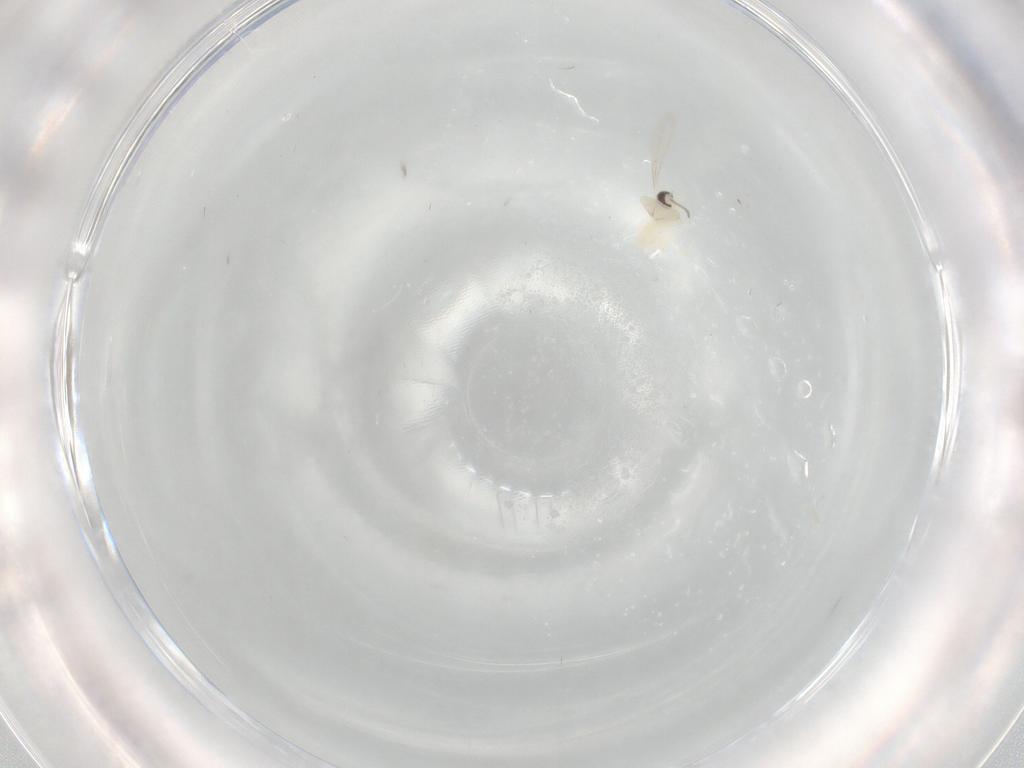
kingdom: Animalia
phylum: Arthropoda
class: Insecta
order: Diptera
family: Cecidomyiidae
